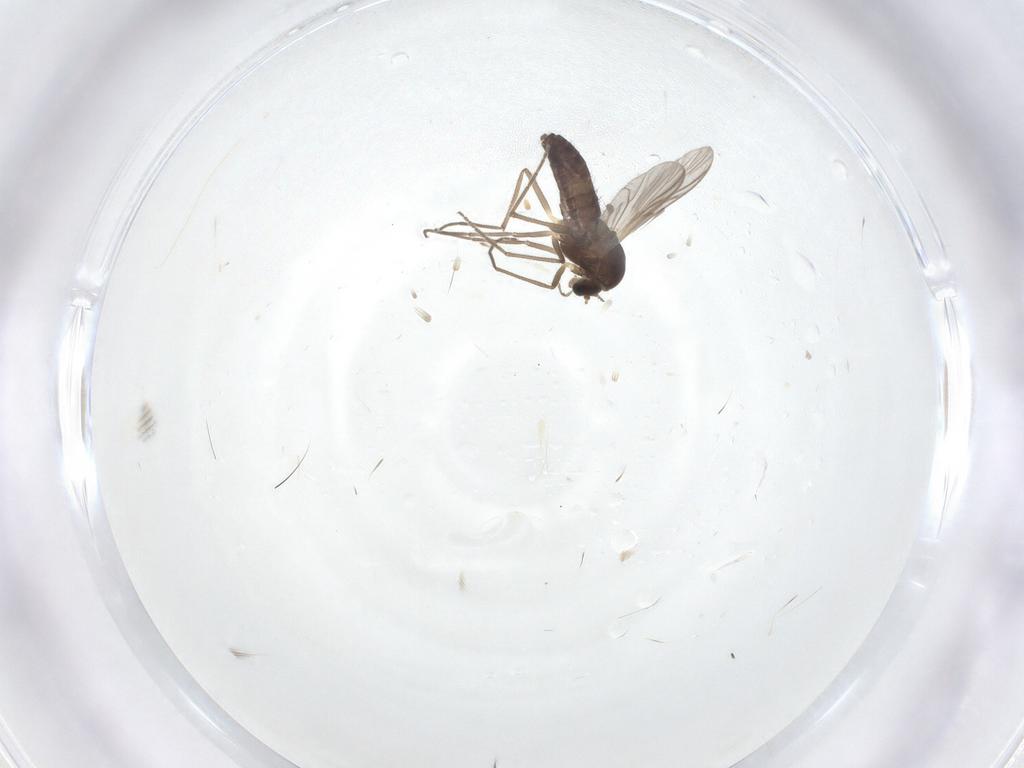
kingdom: Animalia
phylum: Arthropoda
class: Insecta
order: Diptera
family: Chironomidae
